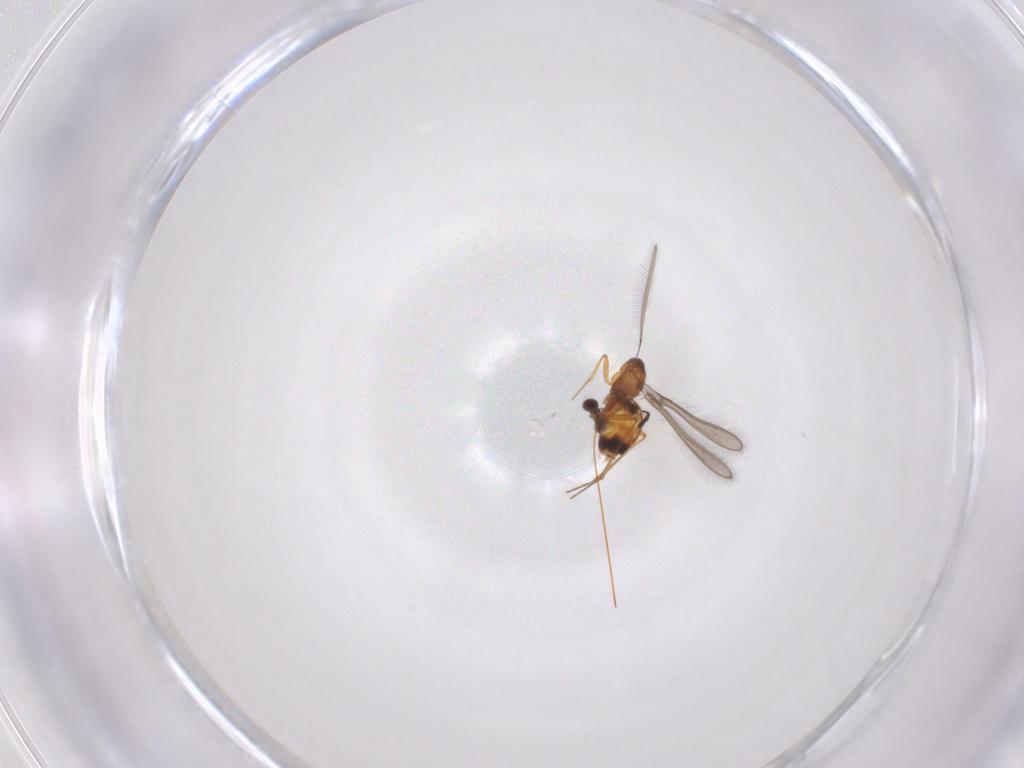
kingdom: Animalia
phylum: Arthropoda
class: Insecta
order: Hymenoptera
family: Mymaridae
